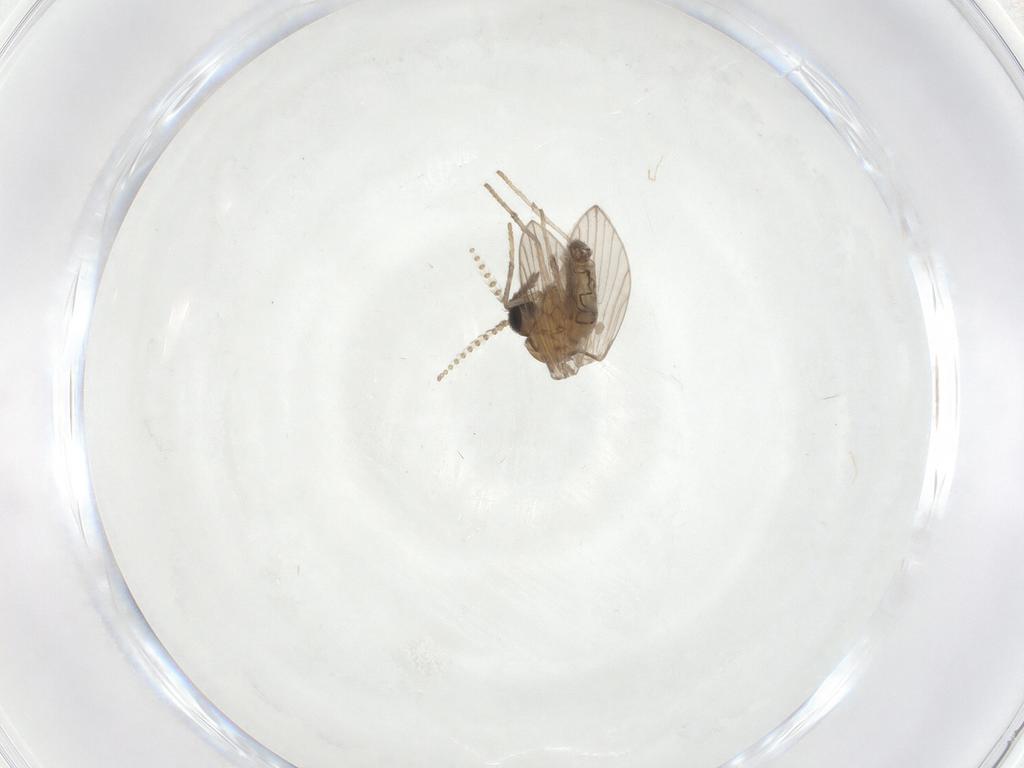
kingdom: Animalia
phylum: Arthropoda
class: Insecta
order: Diptera
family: Psychodidae
